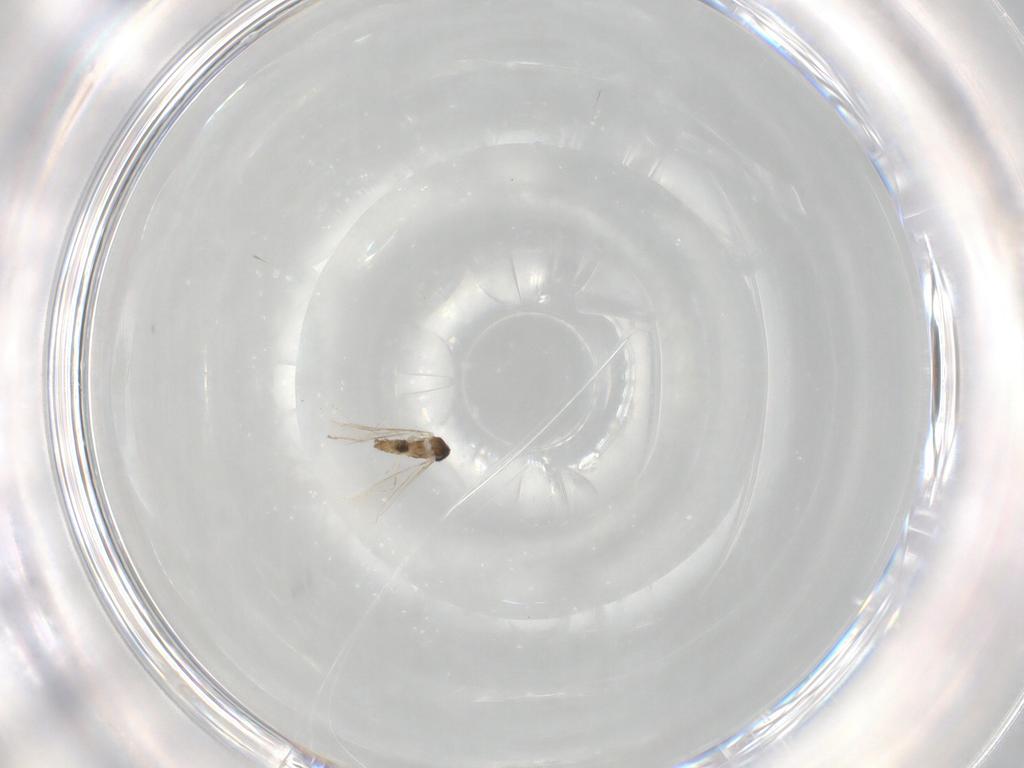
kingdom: Animalia
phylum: Arthropoda
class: Insecta
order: Diptera
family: Cecidomyiidae
